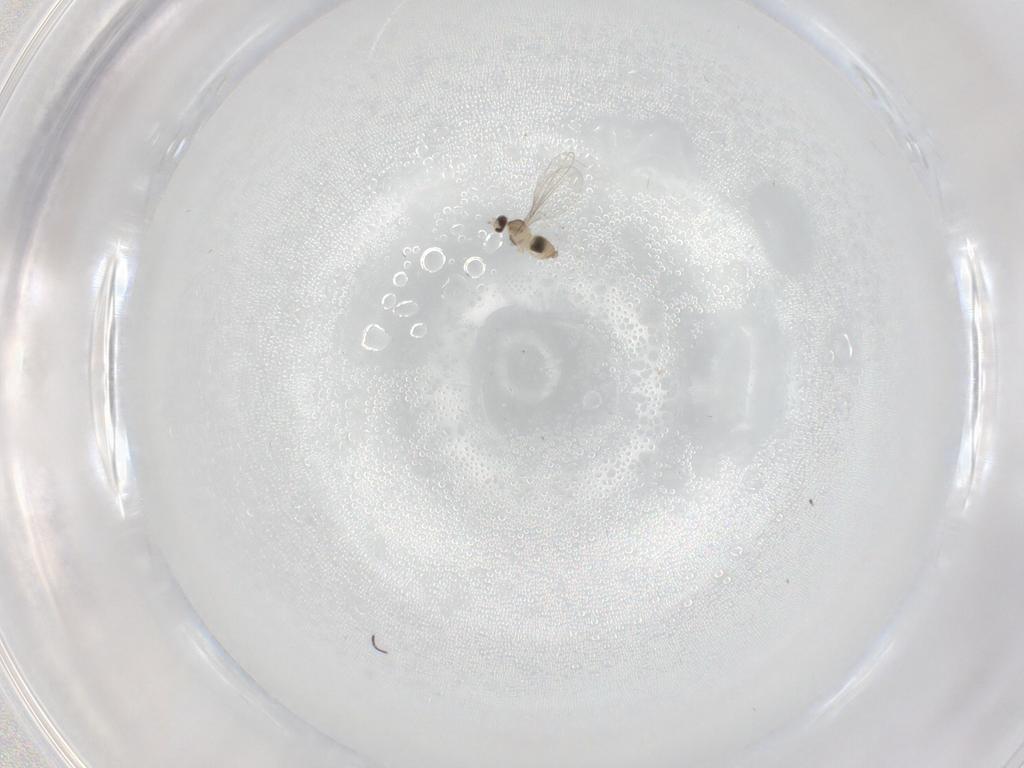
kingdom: Animalia
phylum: Arthropoda
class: Insecta
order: Diptera
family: Cecidomyiidae
